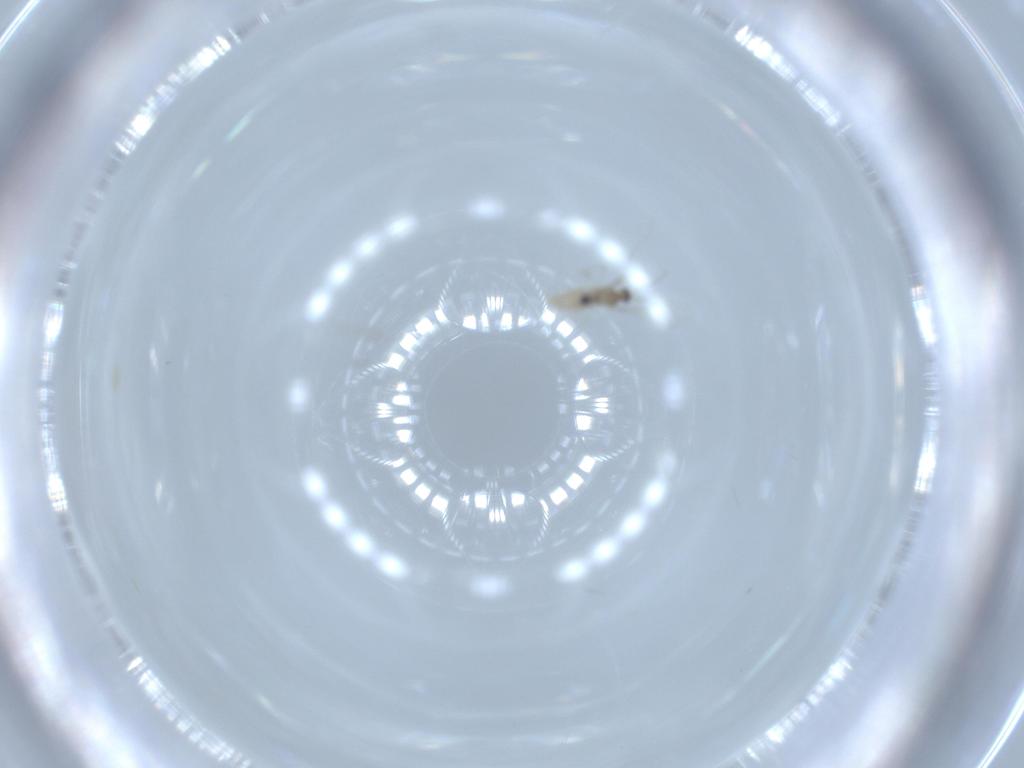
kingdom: Animalia
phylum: Arthropoda
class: Insecta
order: Diptera
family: Cecidomyiidae
